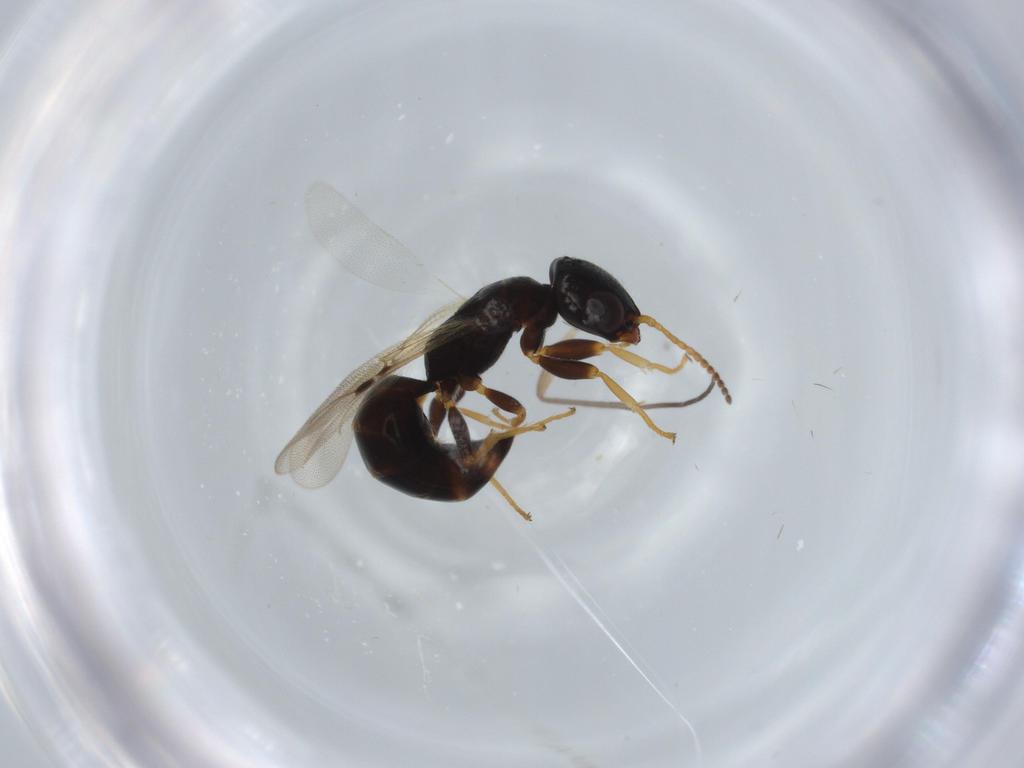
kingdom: Animalia
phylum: Arthropoda
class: Insecta
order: Hymenoptera
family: Bethylidae
